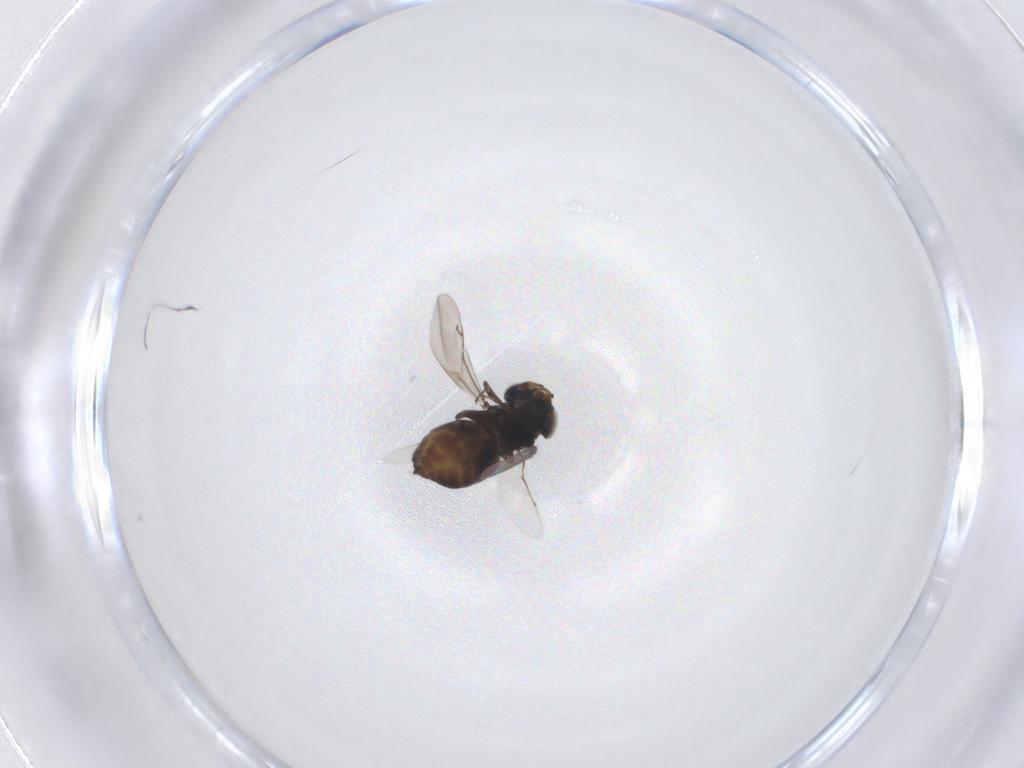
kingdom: Animalia
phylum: Arthropoda
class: Insecta
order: Hymenoptera
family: Eunotidae
